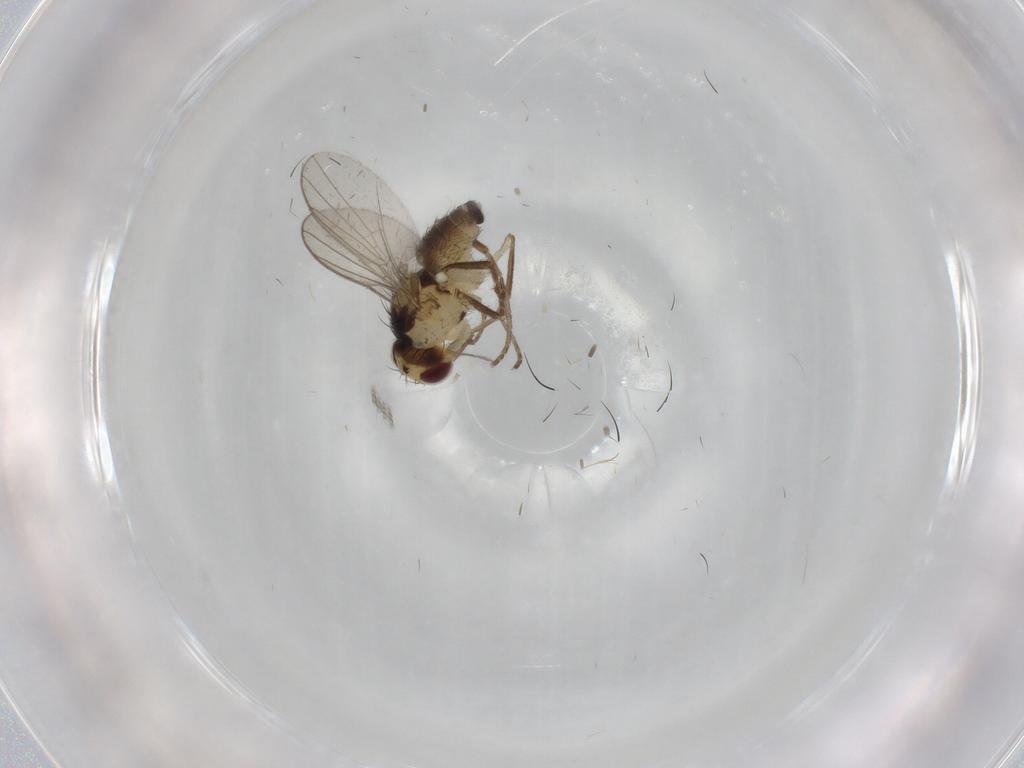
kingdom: Animalia
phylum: Arthropoda
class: Insecta
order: Diptera
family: Agromyzidae
